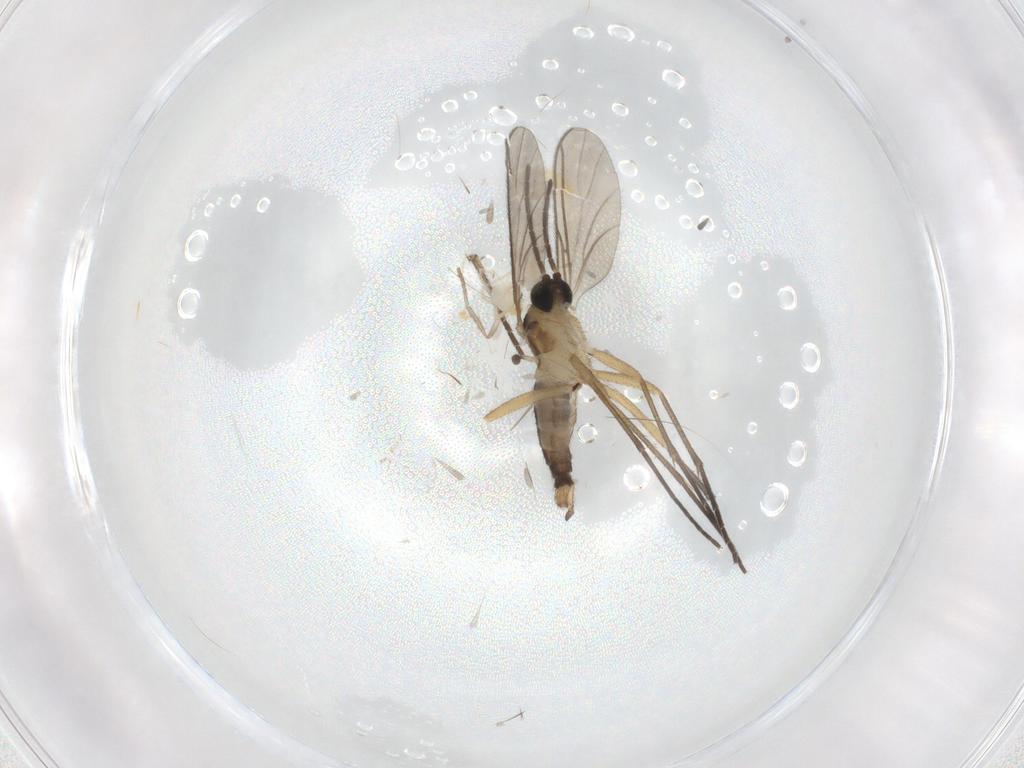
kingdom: Animalia
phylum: Arthropoda
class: Insecta
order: Diptera
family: Psychodidae
